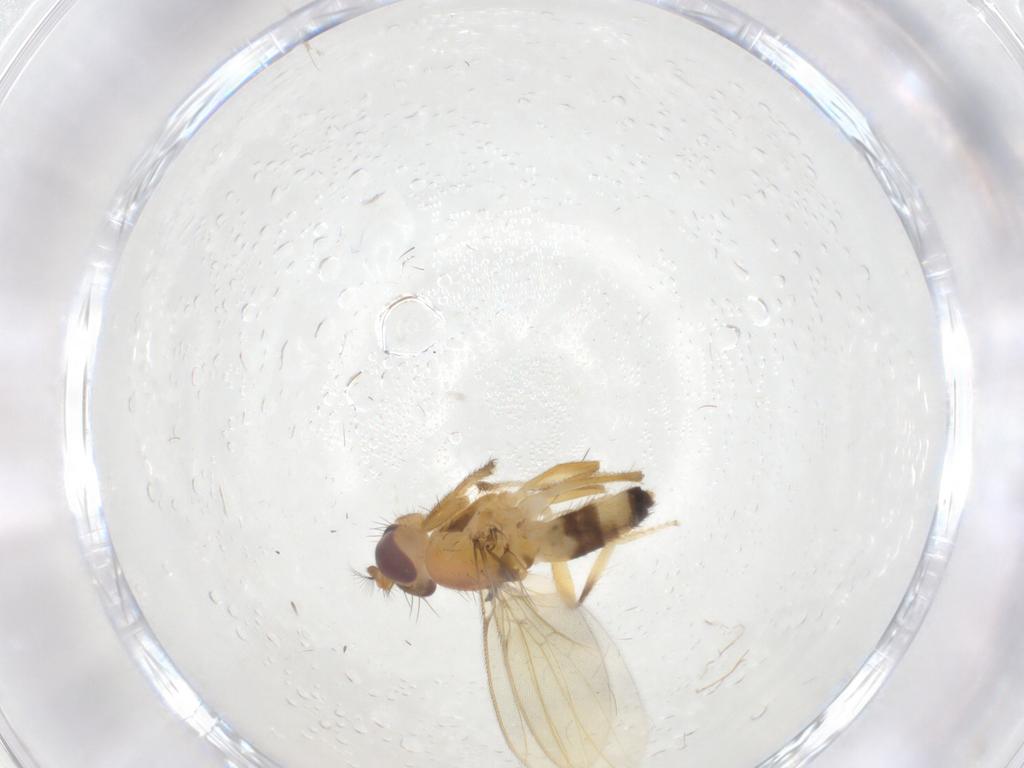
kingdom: Animalia
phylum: Arthropoda
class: Insecta
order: Diptera
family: Periscelididae
